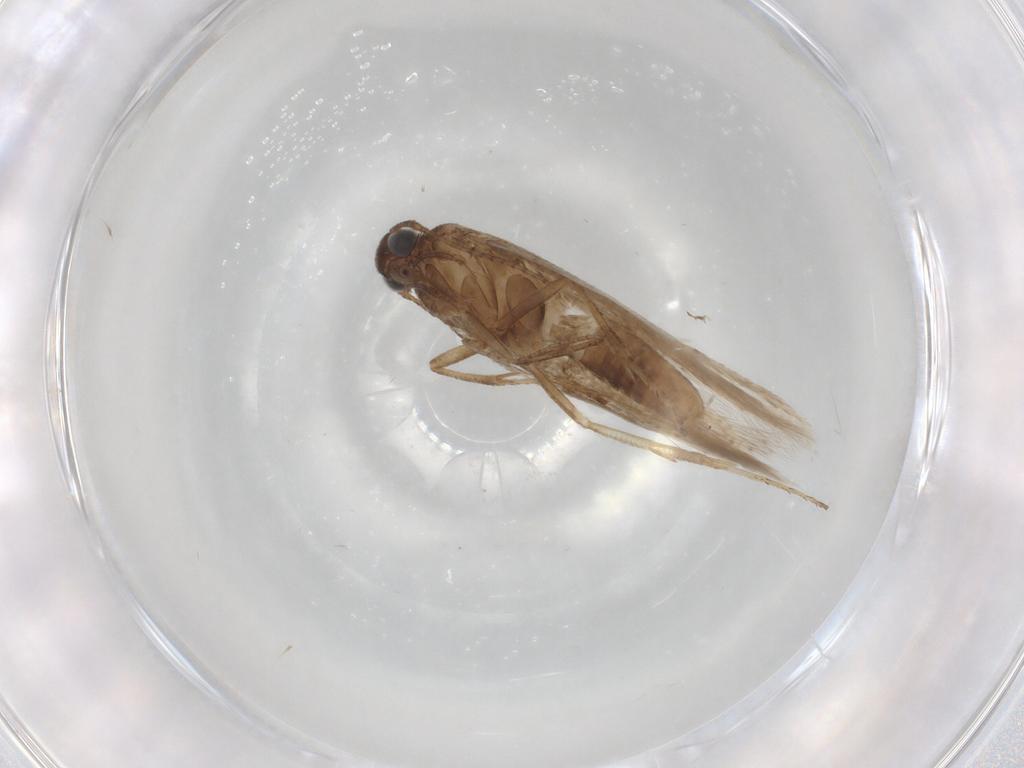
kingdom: Animalia
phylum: Arthropoda
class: Insecta
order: Lepidoptera
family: Gelechiidae
